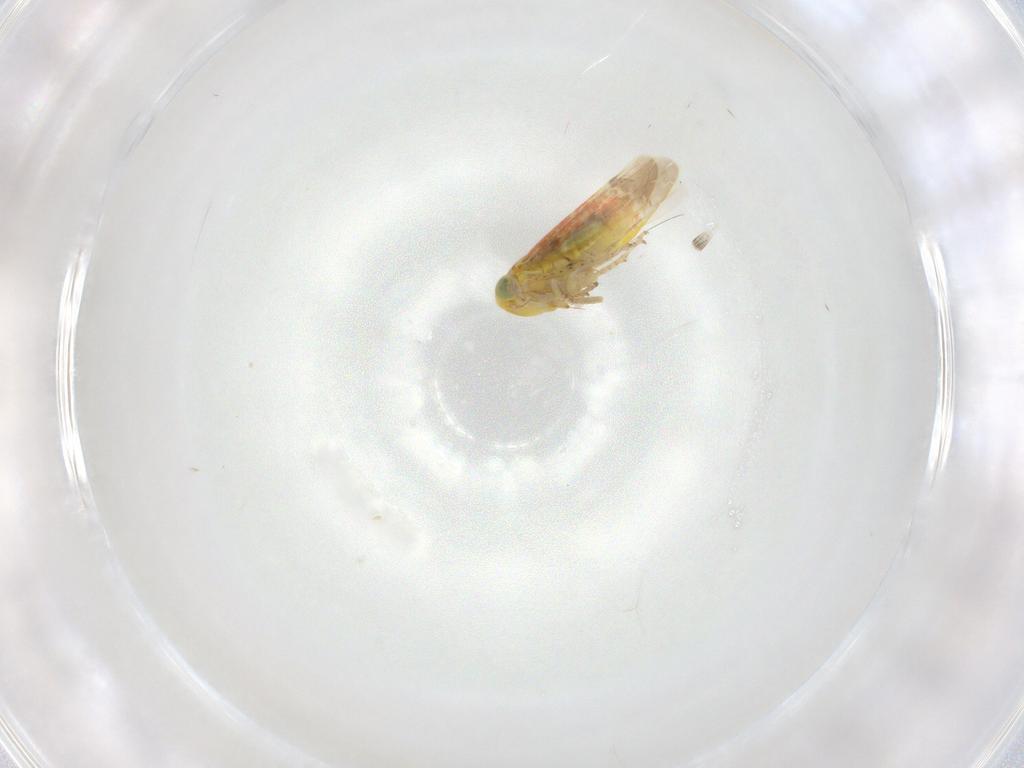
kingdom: Animalia
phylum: Arthropoda
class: Insecta
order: Hemiptera
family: Cicadellidae
